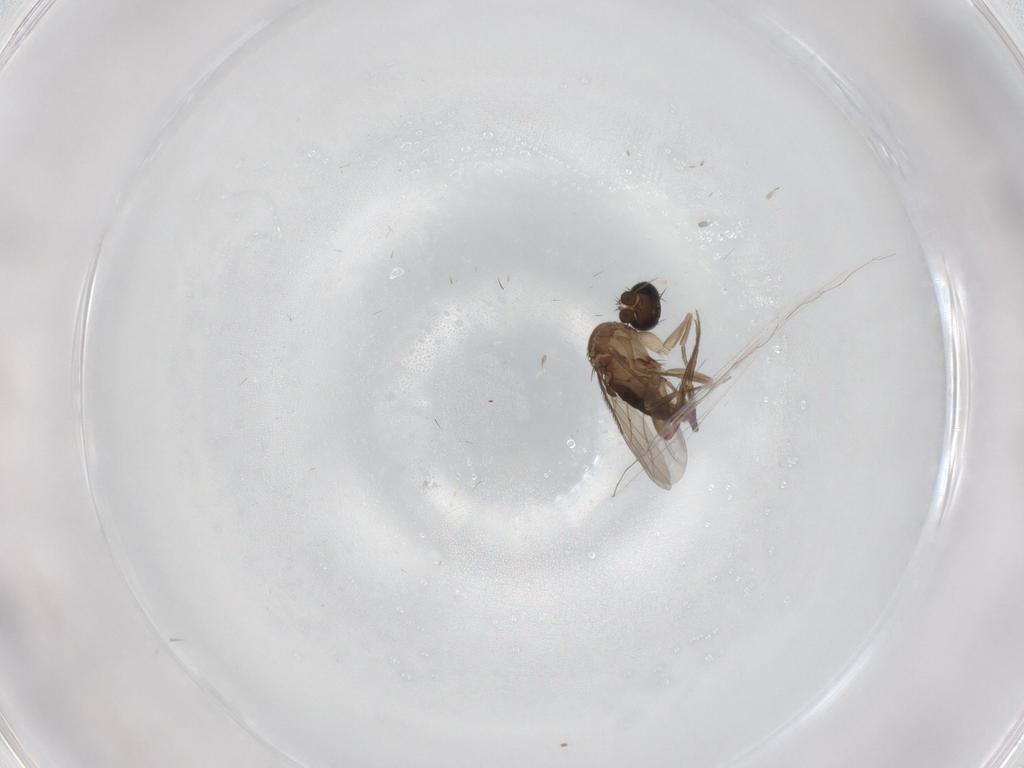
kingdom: Animalia
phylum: Arthropoda
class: Insecta
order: Diptera
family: Phoridae
